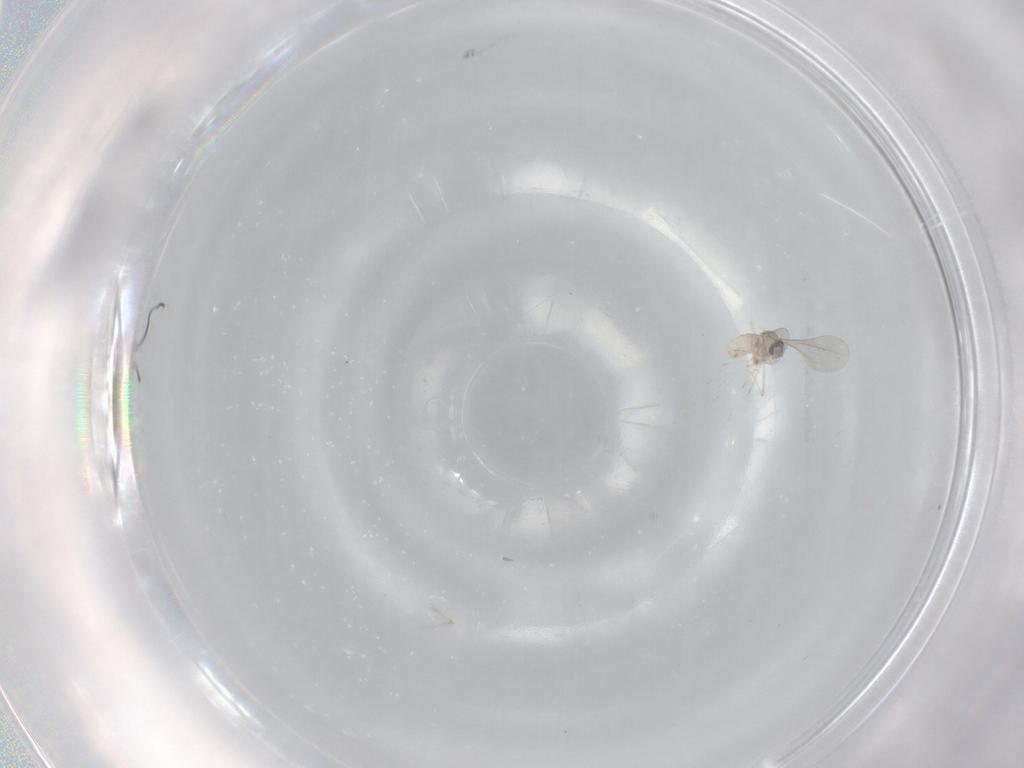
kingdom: Animalia
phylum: Arthropoda
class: Insecta
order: Diptera
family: Cecidomyiidae
